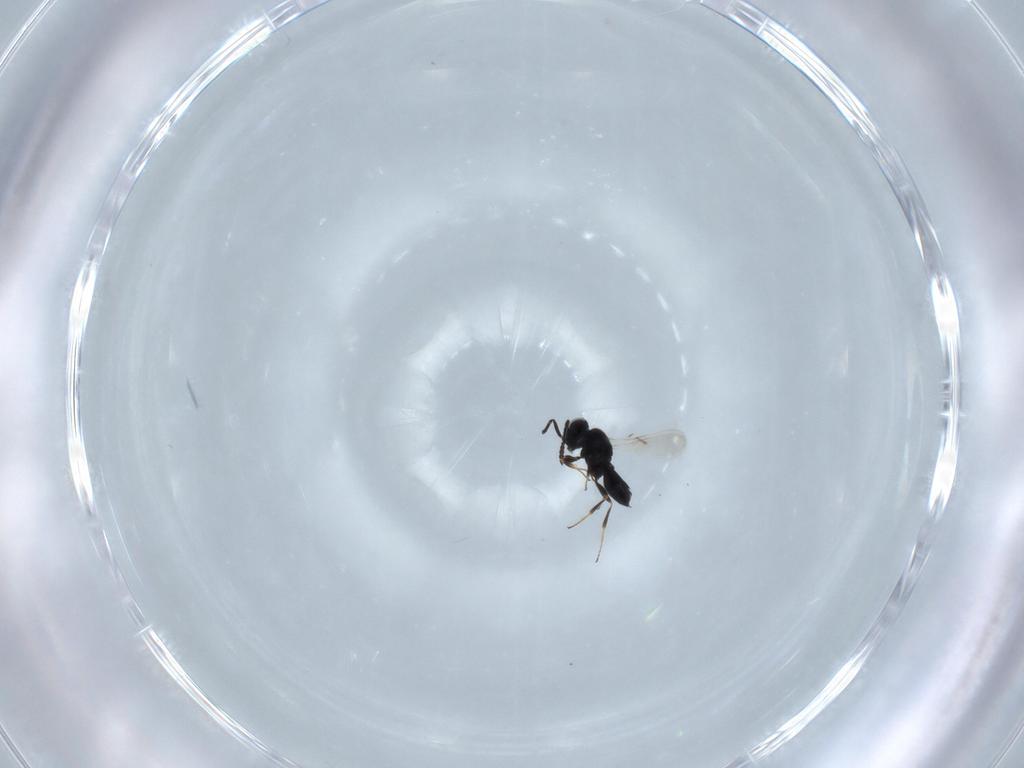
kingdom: Animalia
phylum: Arthropoda
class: Insecta
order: Hymenoptera
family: Scelionidae
